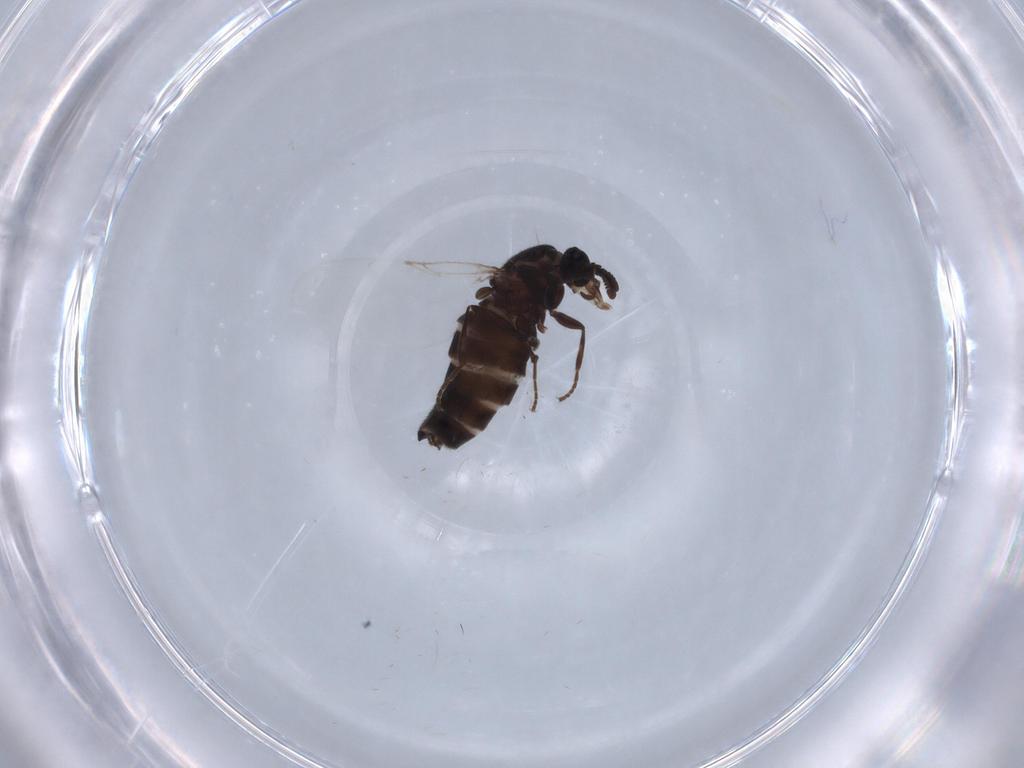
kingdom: Animalia
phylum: Arthropoda
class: Insecta
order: Diptera
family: Scatopsidae
